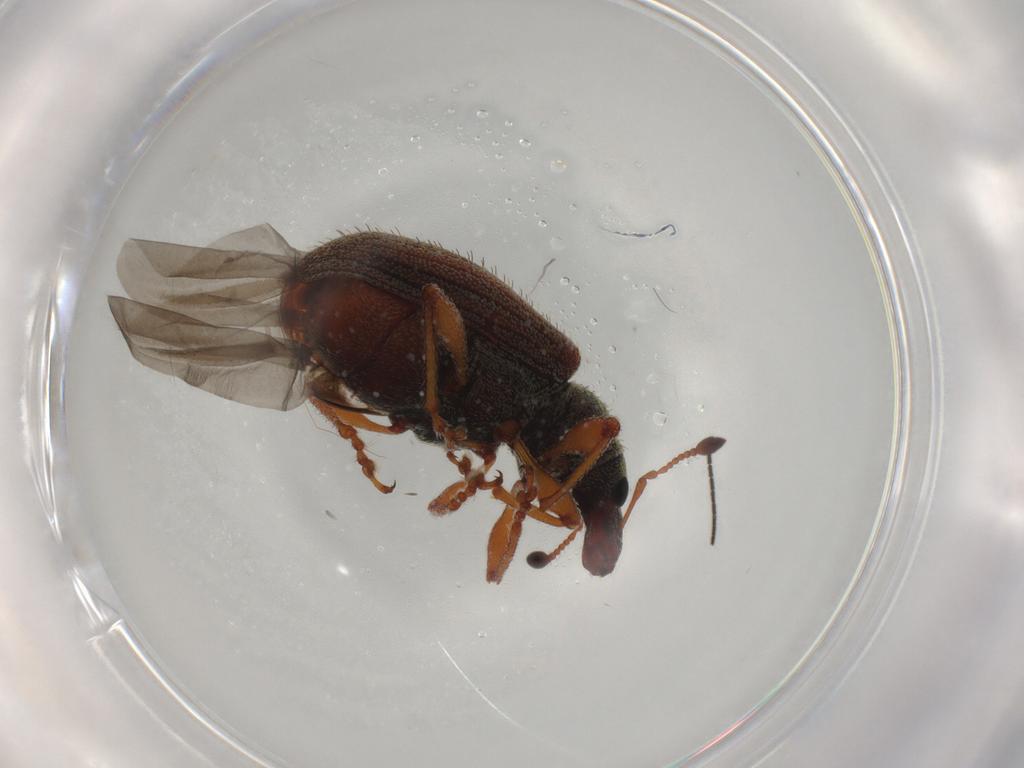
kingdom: Animalia
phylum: Arthropoda
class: Insecta
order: Coleoptera
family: Curculionidae
